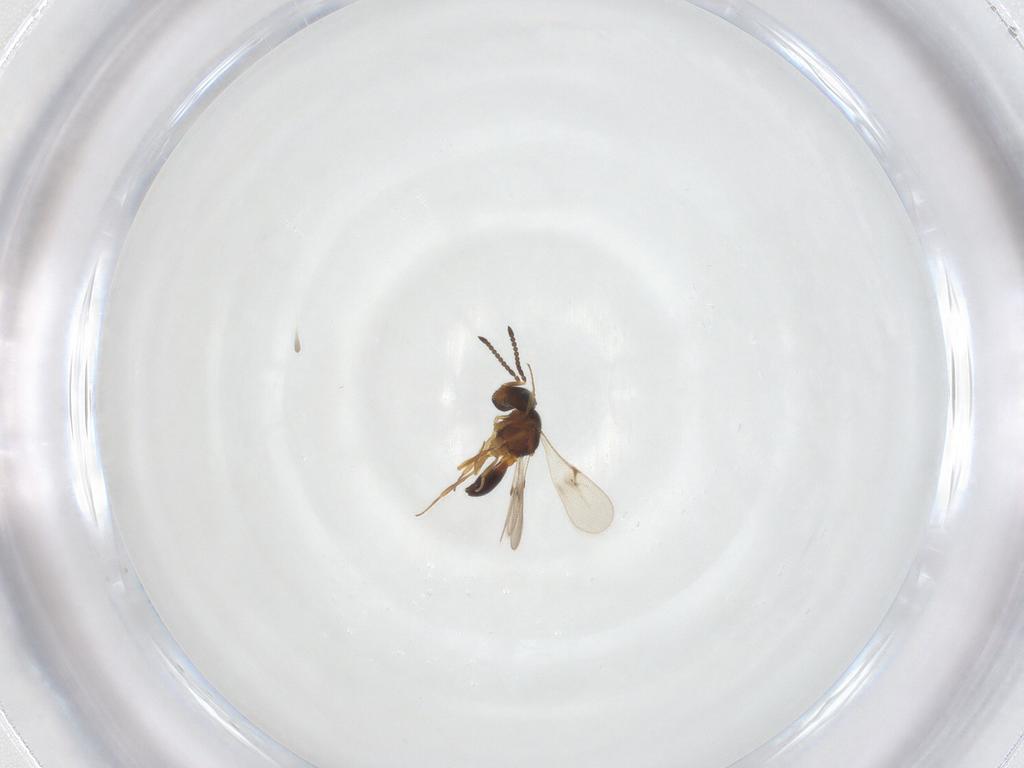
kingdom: Animalia
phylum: Arthropoda
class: Arachnida
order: Araneae
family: Pholcidae
